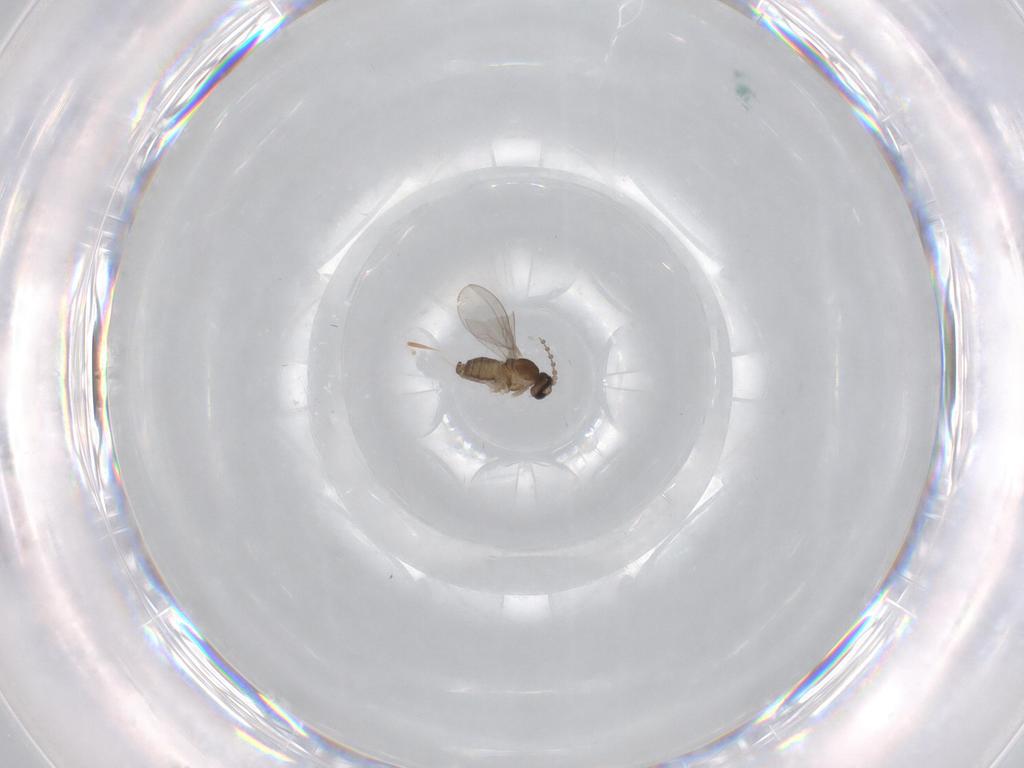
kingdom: Animalia
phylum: Arthropoda
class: Insecta
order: Diptera
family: Cecidomyiidae
